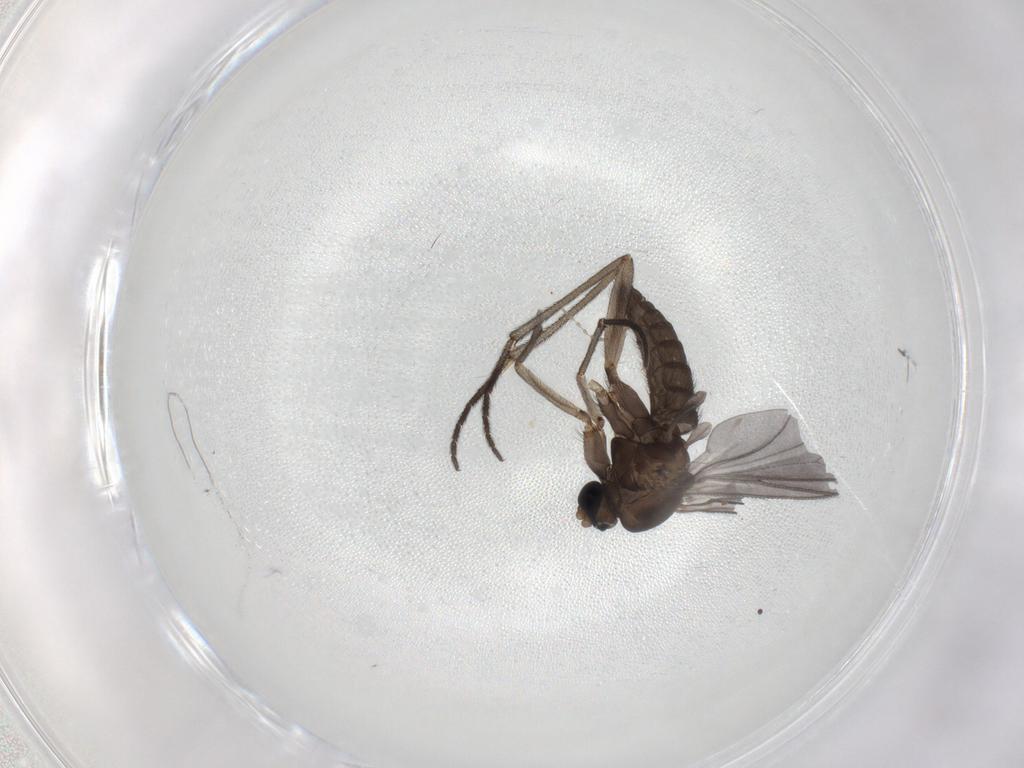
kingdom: Animalia
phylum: Arthropoda
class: Insecta
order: Diptera
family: Sciaridae
